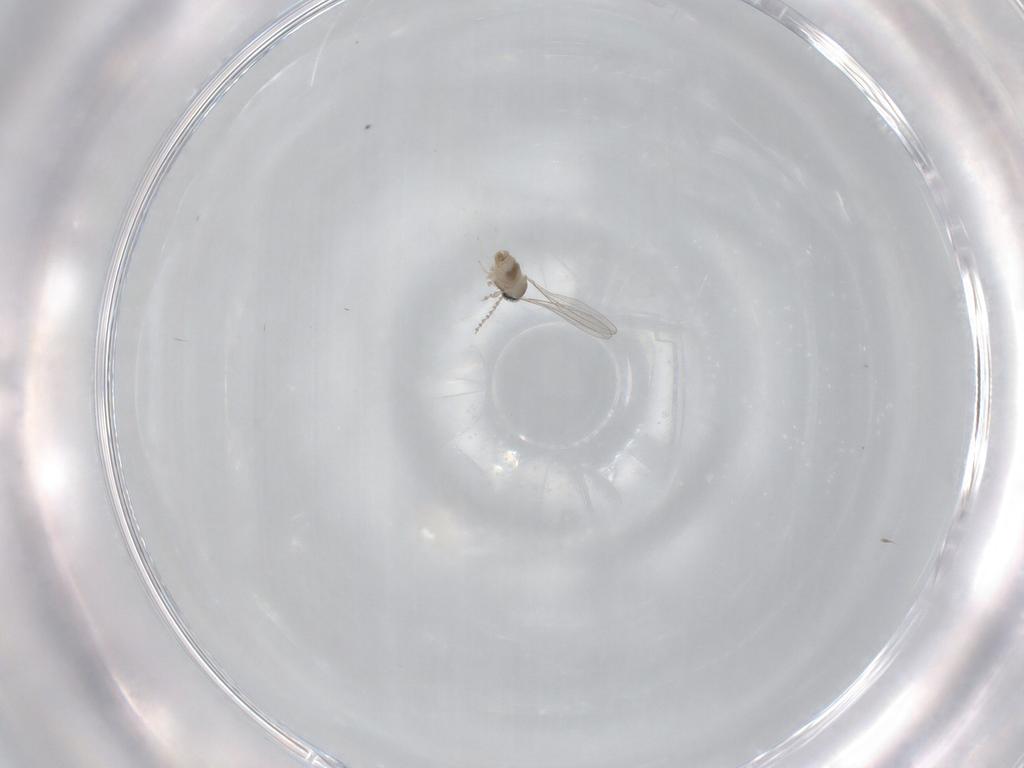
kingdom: Animalia
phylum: Arthropoda
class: Insecta
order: Diptera
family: Cecidomyiidae
